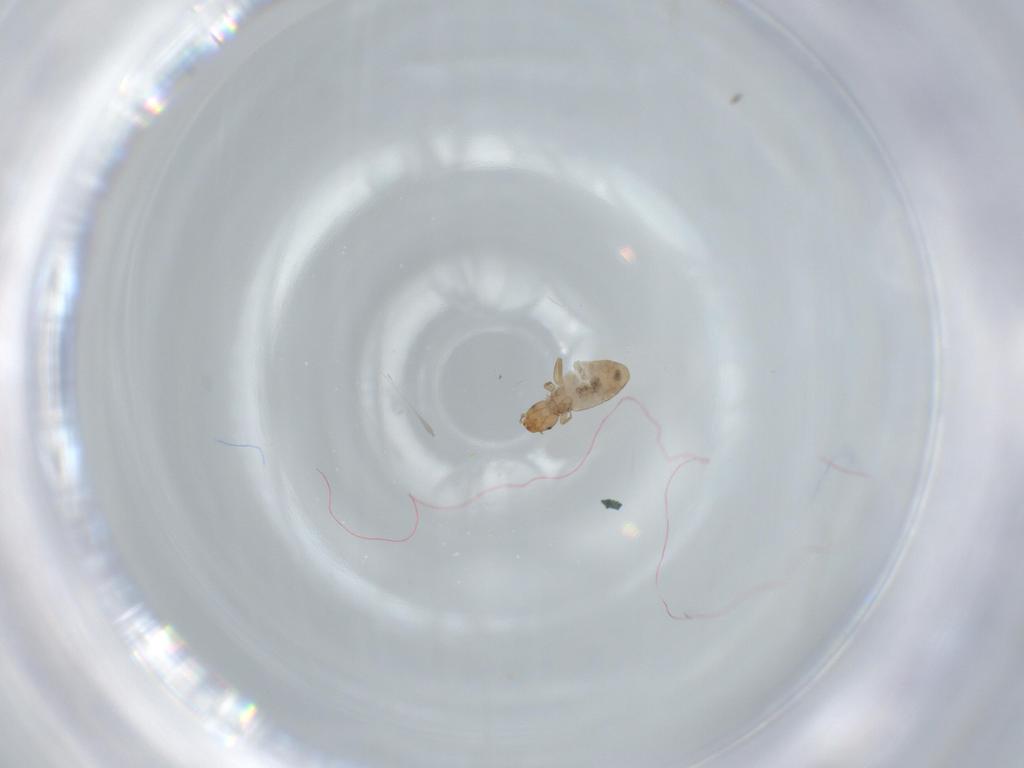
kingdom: Animalia
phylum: Arthropoda
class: Insecta
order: Psocodea
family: Liposcelididae
